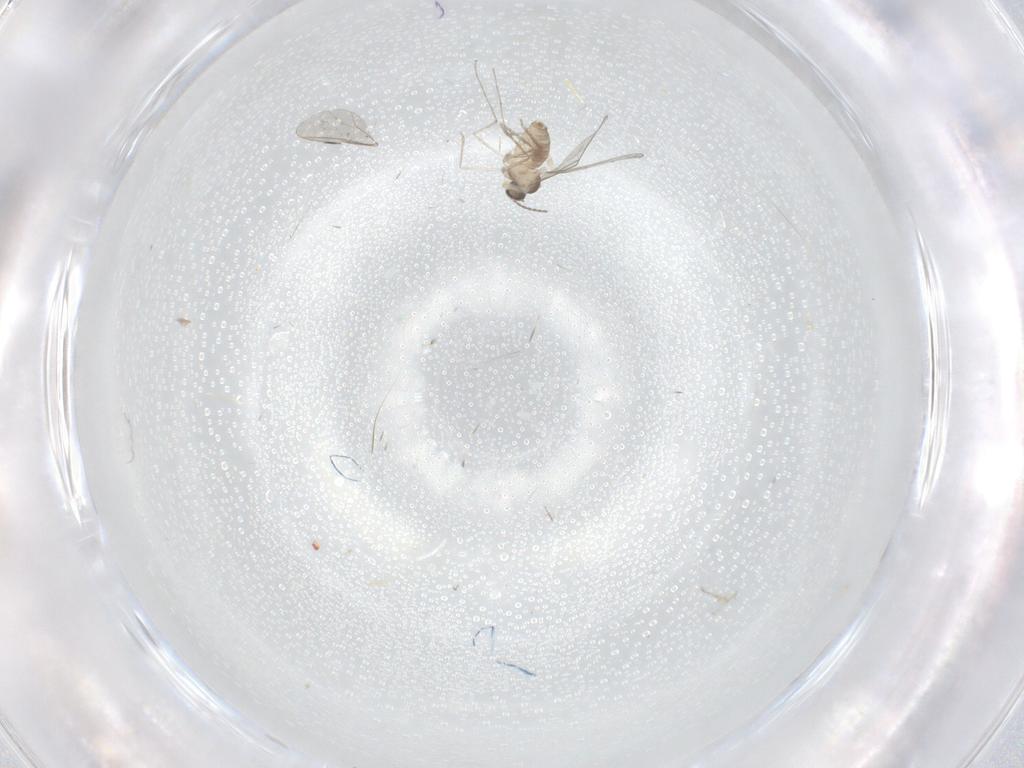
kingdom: Animalia
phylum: Arthropoda
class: Insecta
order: Diptera
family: Cecidomyiidae
